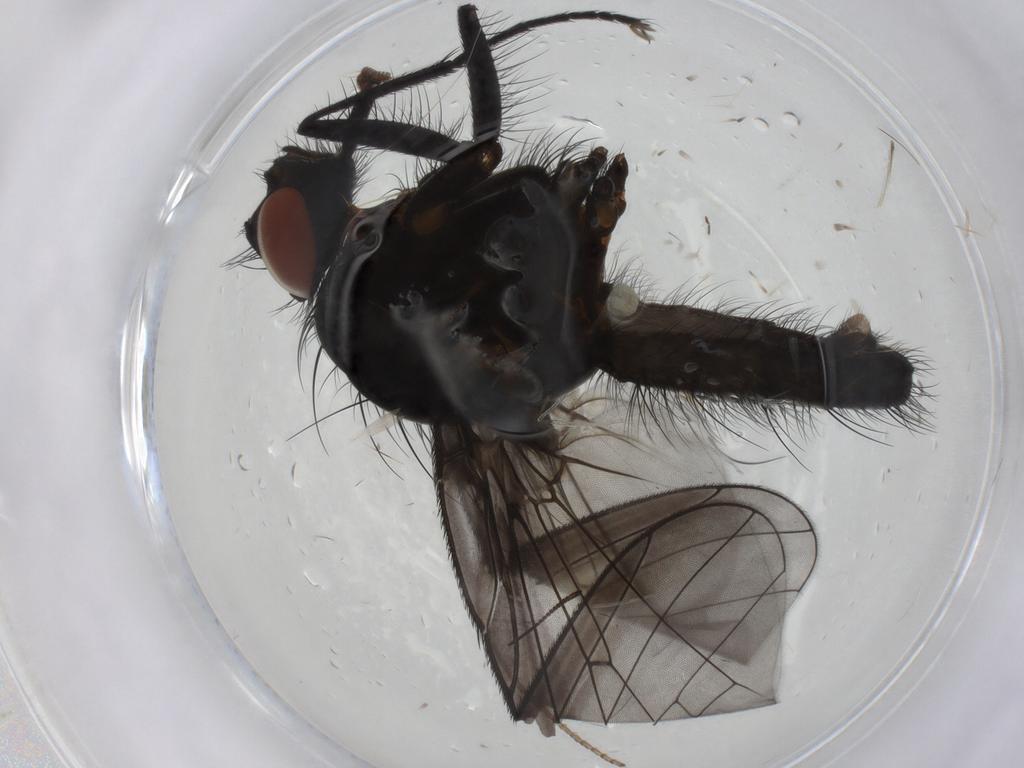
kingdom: Animalia
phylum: Arthropoda
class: Insecta
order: Diptera
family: Anthomyiidae
